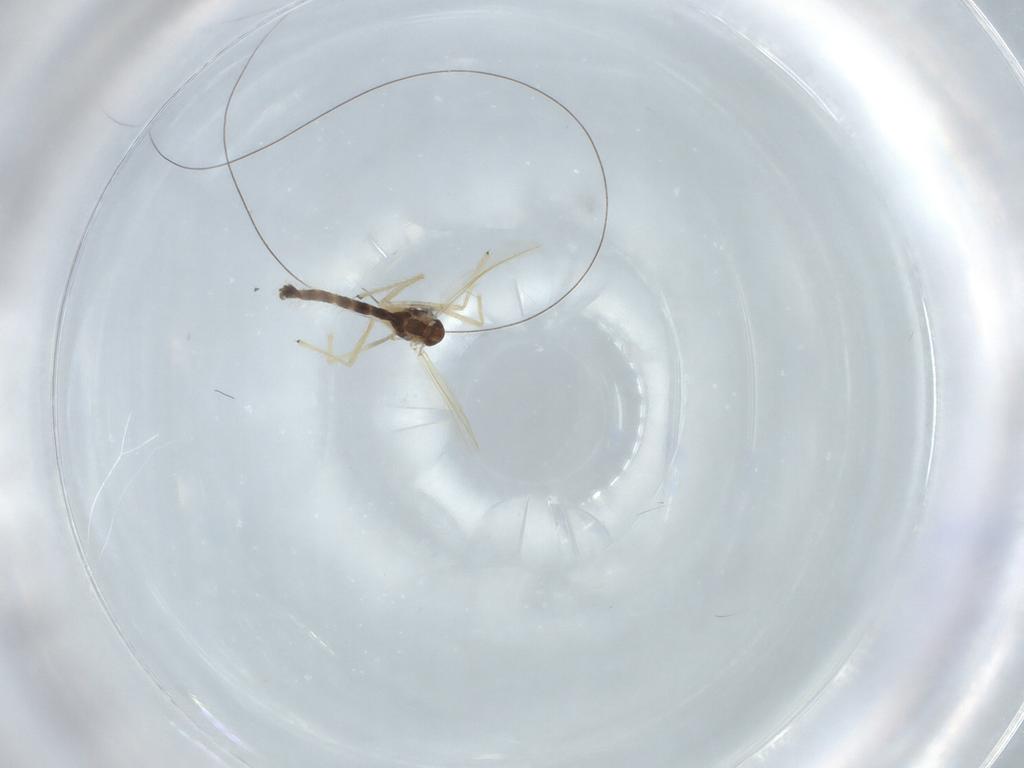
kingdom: Animalia
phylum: Arthropoda
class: Insecta
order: Diptera
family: Chironomidae
